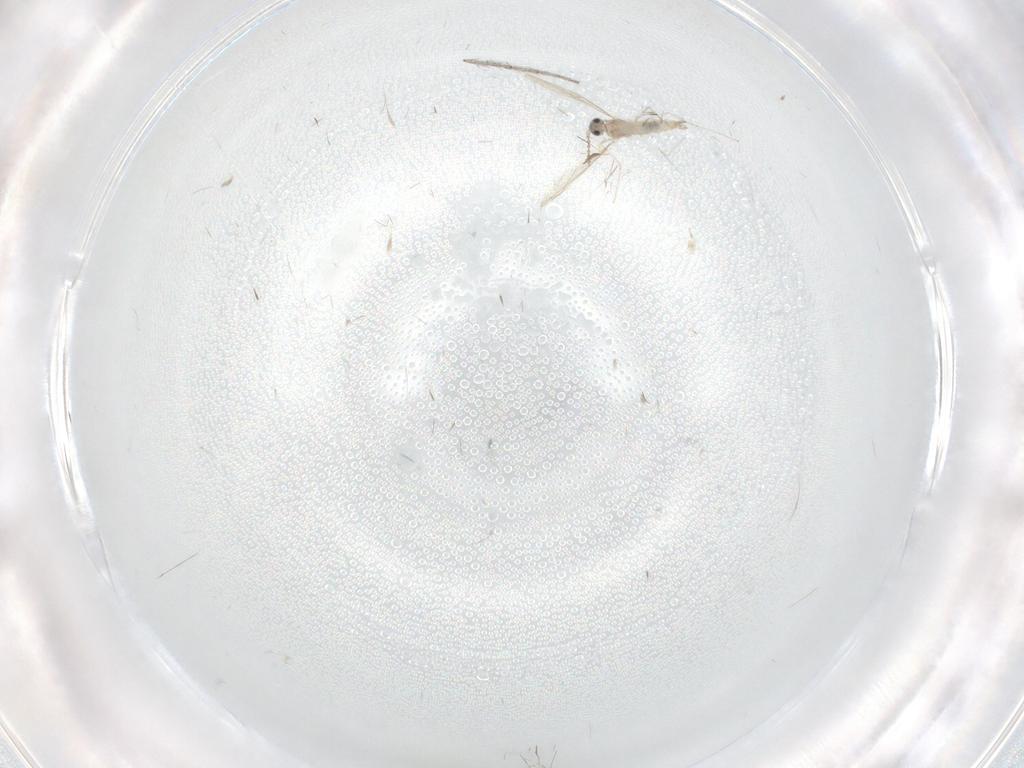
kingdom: Animalia
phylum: Arthropoda
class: Insecta
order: Diptera
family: Chironomidae
